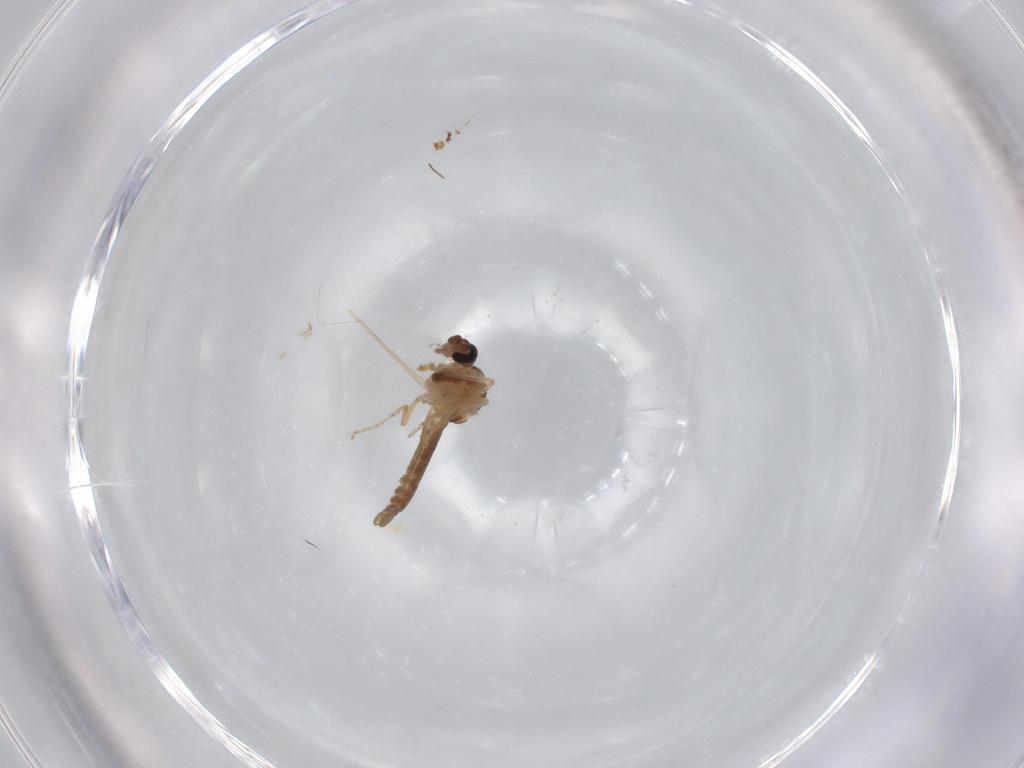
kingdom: Animalia
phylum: Arthropoda
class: Insecta
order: Diptera
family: Ceratopogonidae
